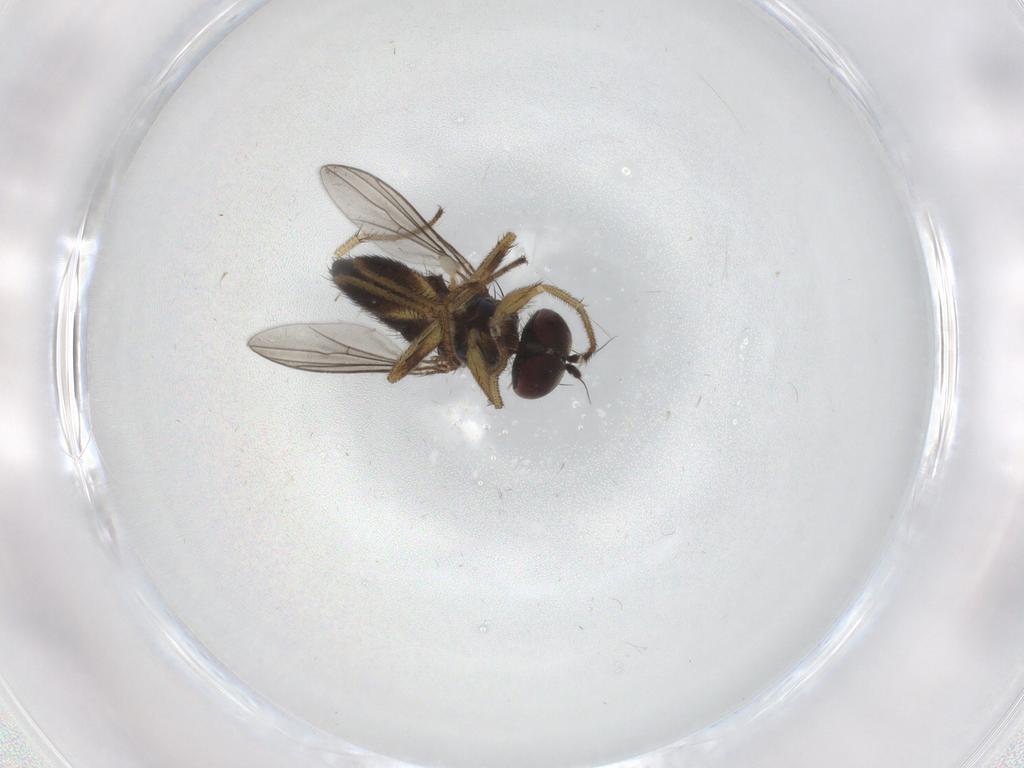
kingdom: Animalia
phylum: Arthropoda
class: Insecta
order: Diptera
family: Dolichopodidae
